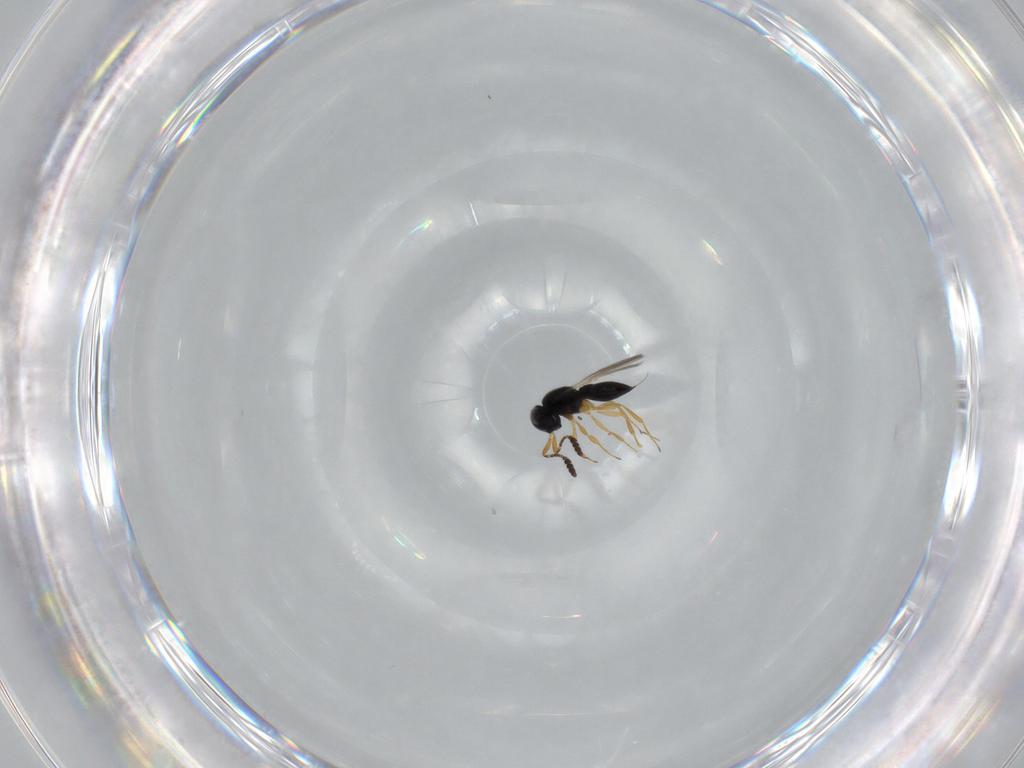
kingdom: Animalia
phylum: Arthropoda
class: Insecta
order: Hymenoptera
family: Scelionidae
